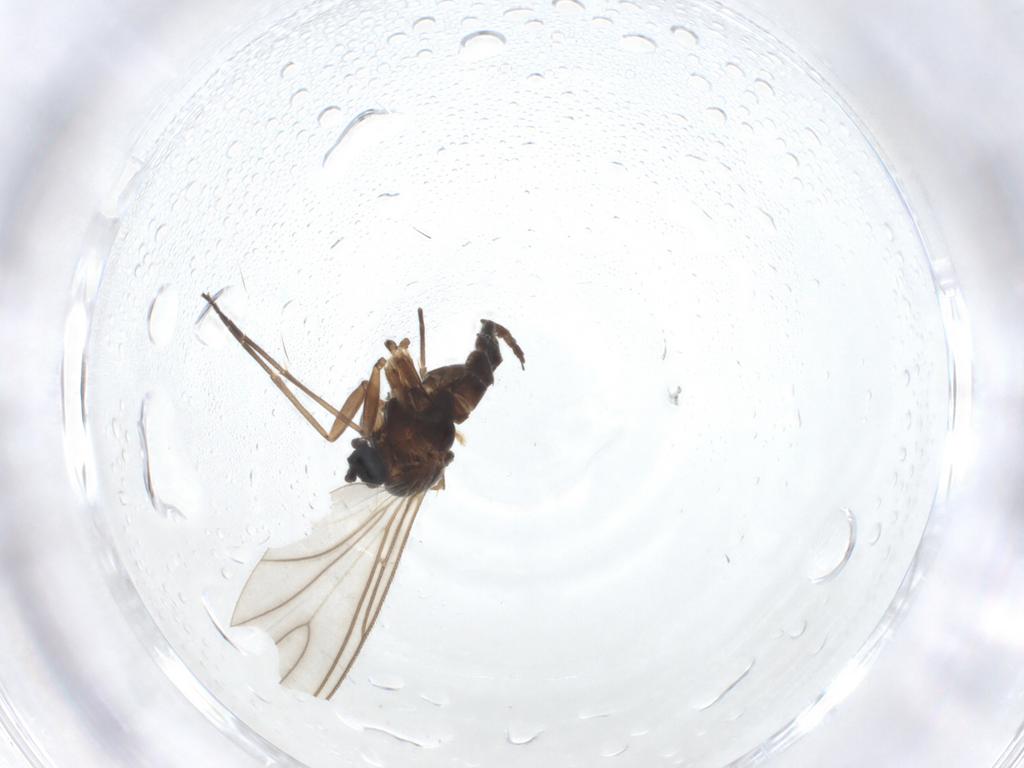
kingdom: Animalia
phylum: Arthropoda
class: Insecta
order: Diptera
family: Sciaridae
